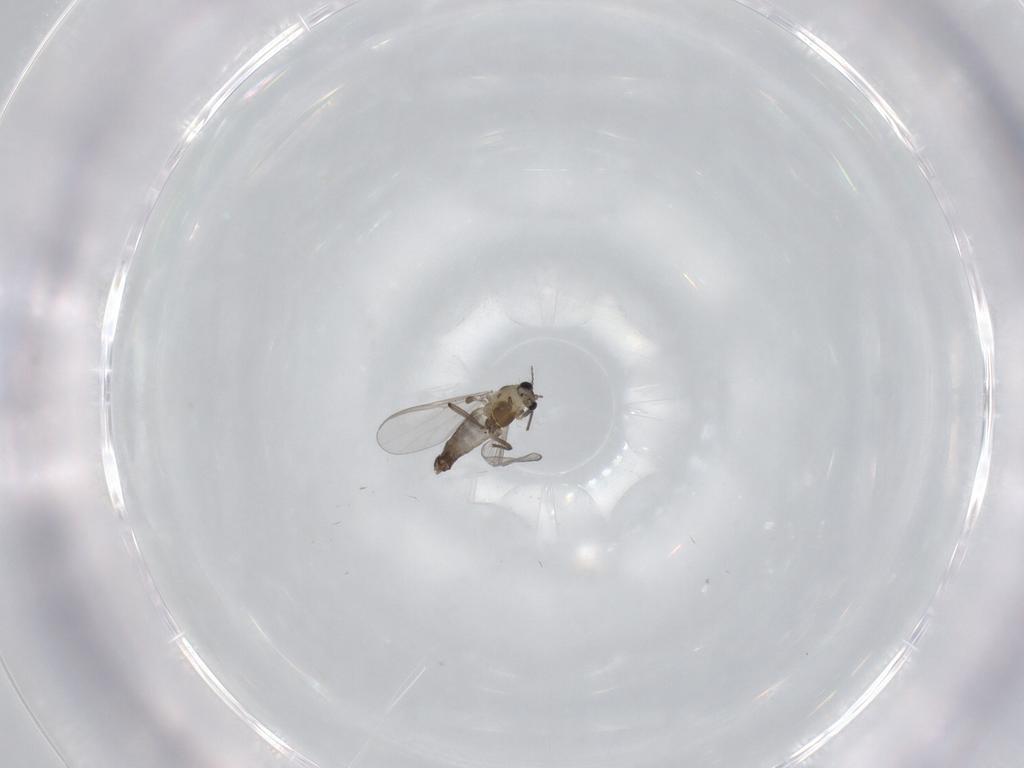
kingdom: Animalia
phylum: Arthropoda
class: Insecta
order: Diptera
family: Chironomidae
